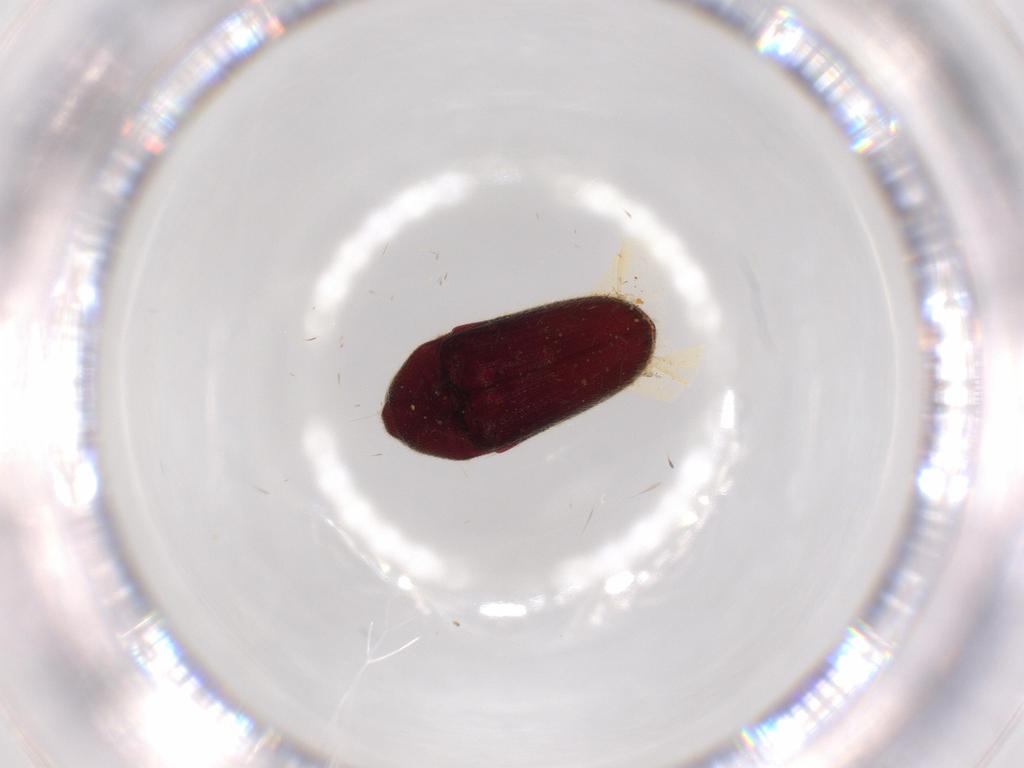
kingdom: Animalia
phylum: Arthropoda
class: Insecta
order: Coleoptera
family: Throscidae
